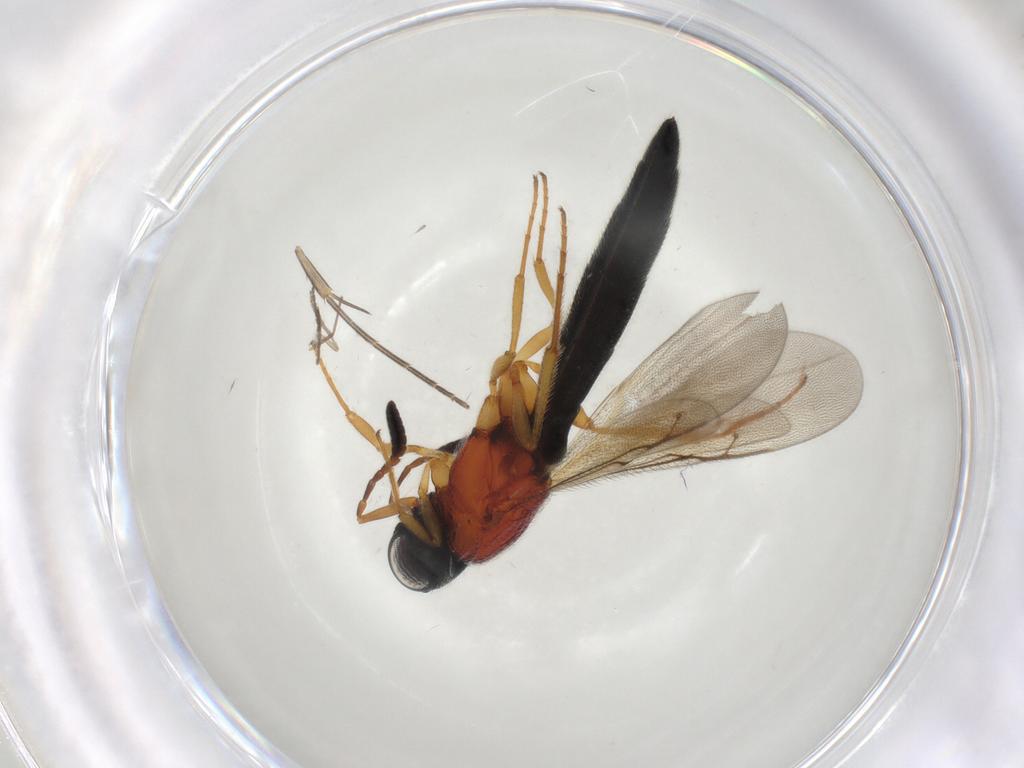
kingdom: Animalia
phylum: Arthropoda
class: Insecta
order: Hymenoptera
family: Scelionidae
